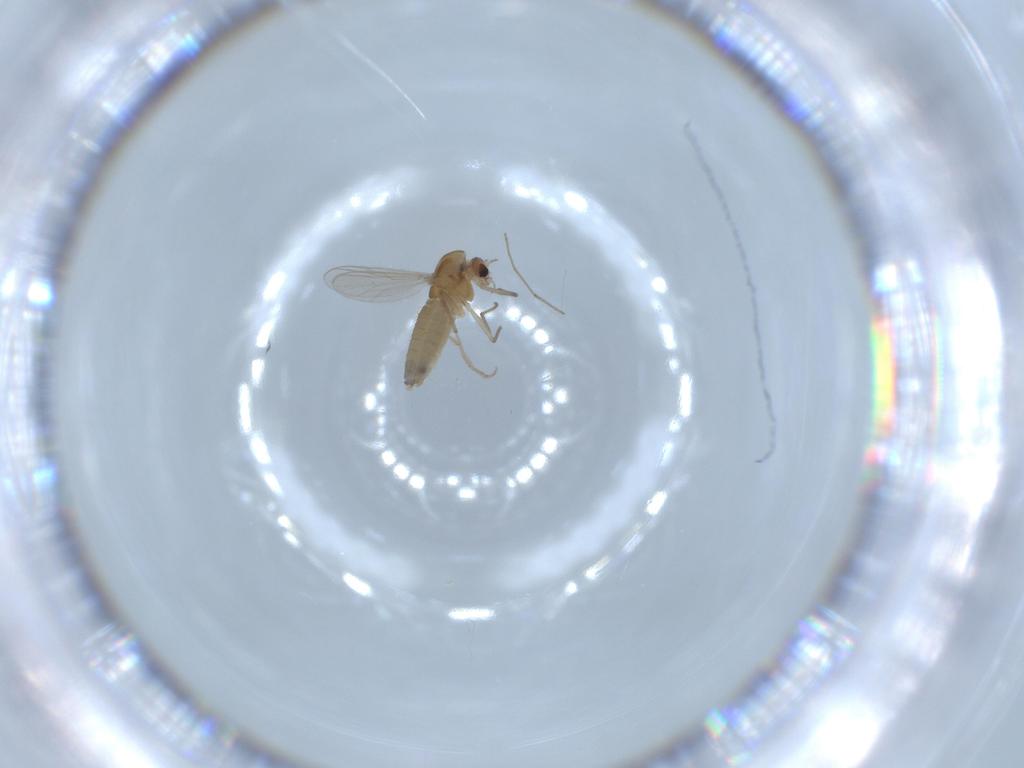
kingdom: Animalia
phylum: Arthropoda
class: Insecta
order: Diptera
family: Chironomidae
